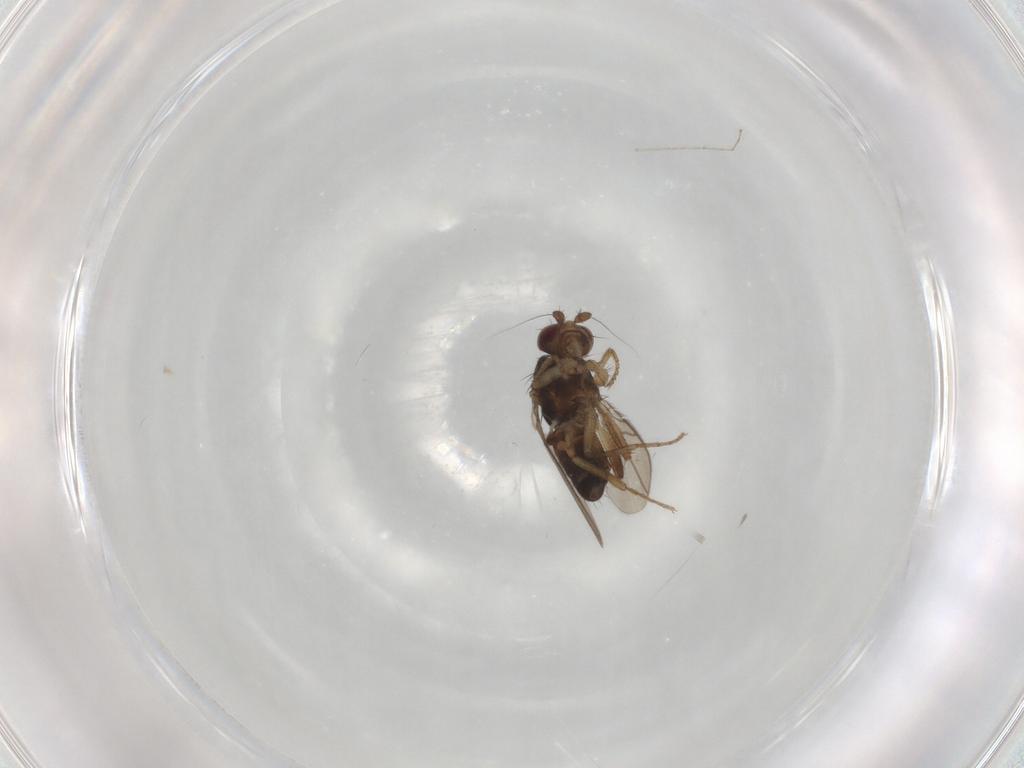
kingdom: Animalia
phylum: Arthropoda
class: Insecta
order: Diptera
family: Sphaeroceridae
